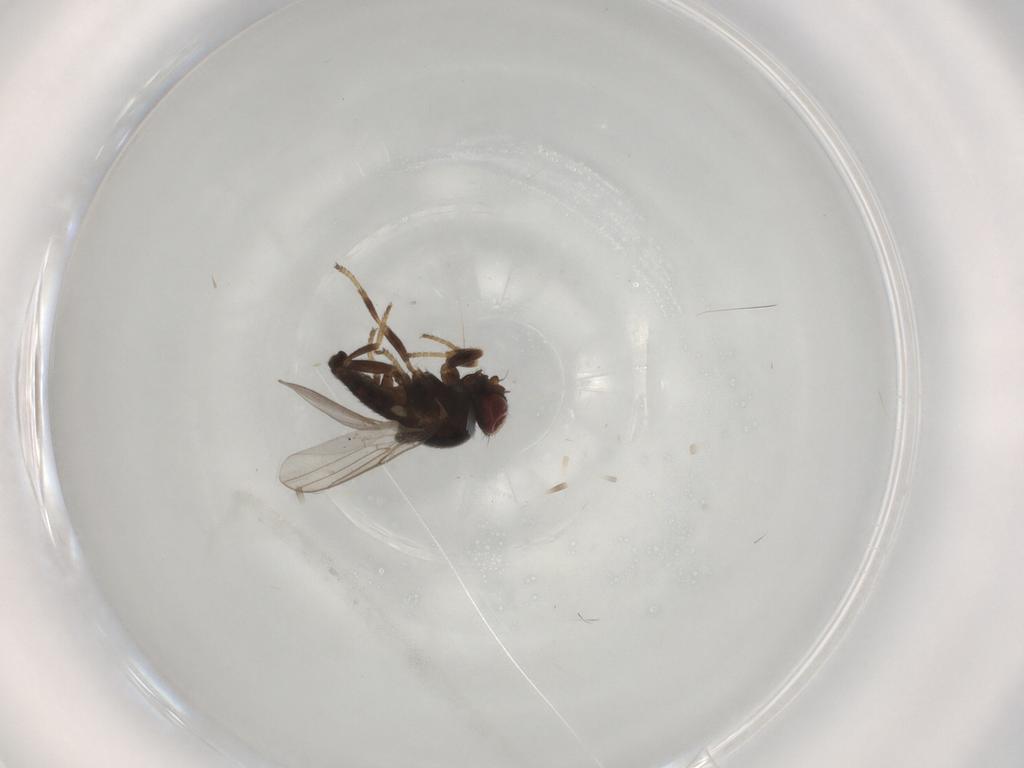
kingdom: Animalia
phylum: Arthropoda
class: Insecta
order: Diptera
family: Chloropidae
